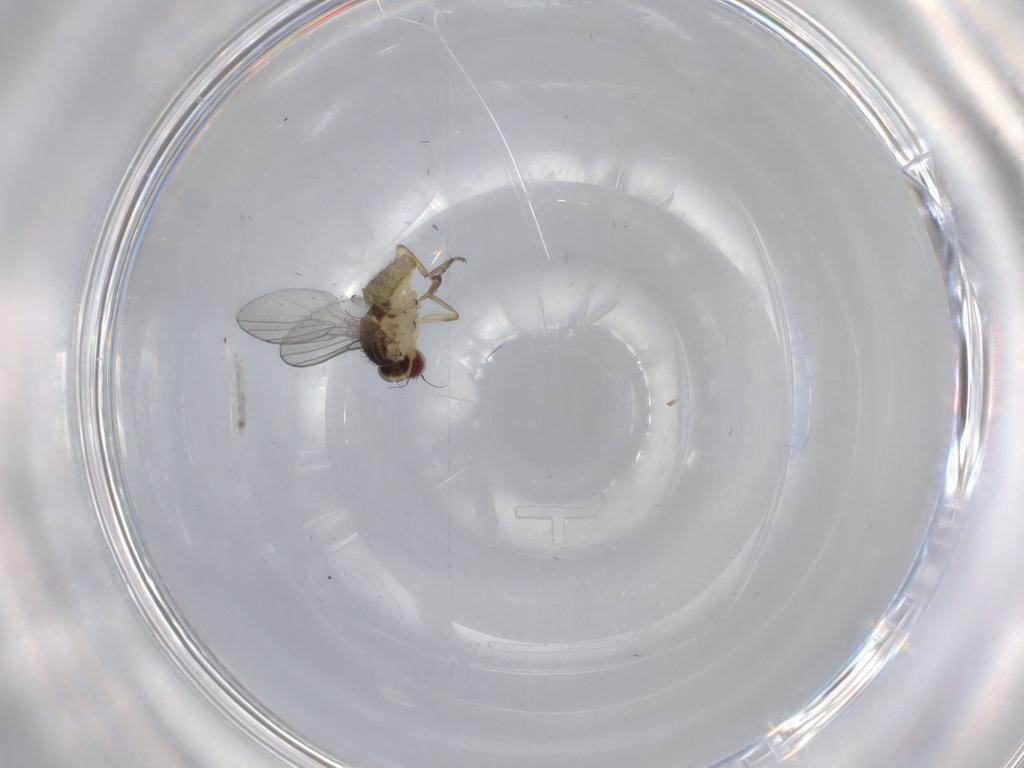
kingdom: Animalia
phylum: Arthropoda
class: Insecta
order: Diptera
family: Agromyzidae
